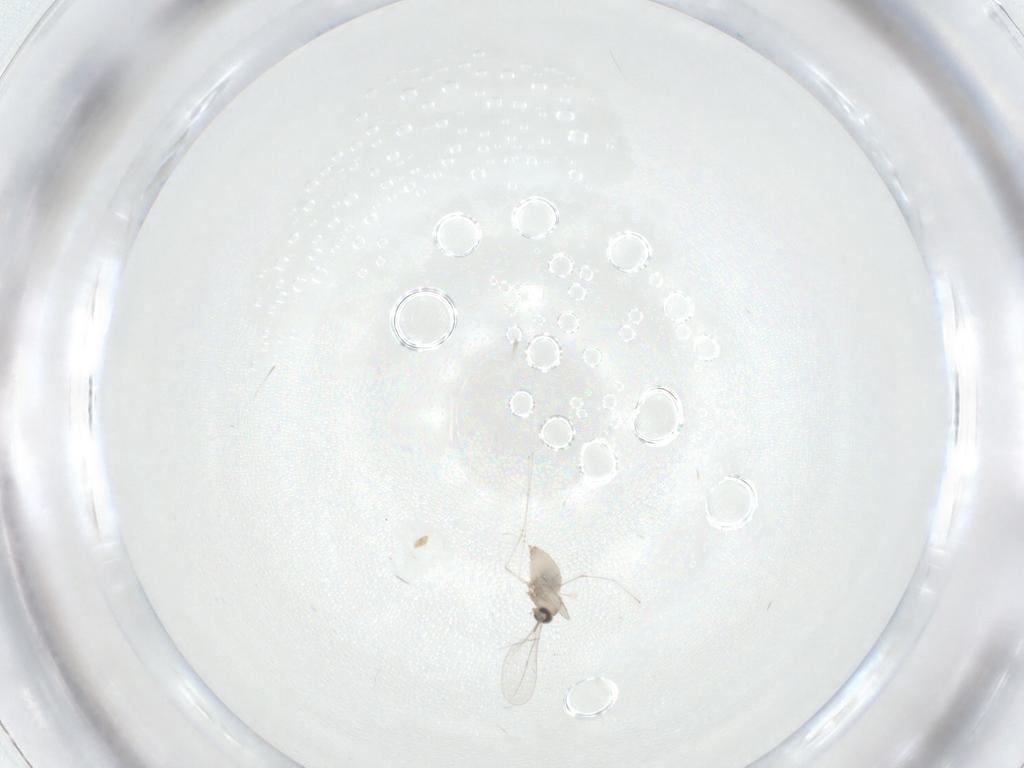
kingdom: Animalia
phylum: Arthropoda
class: Insecta
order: Diptera
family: Cecidomyiidae
